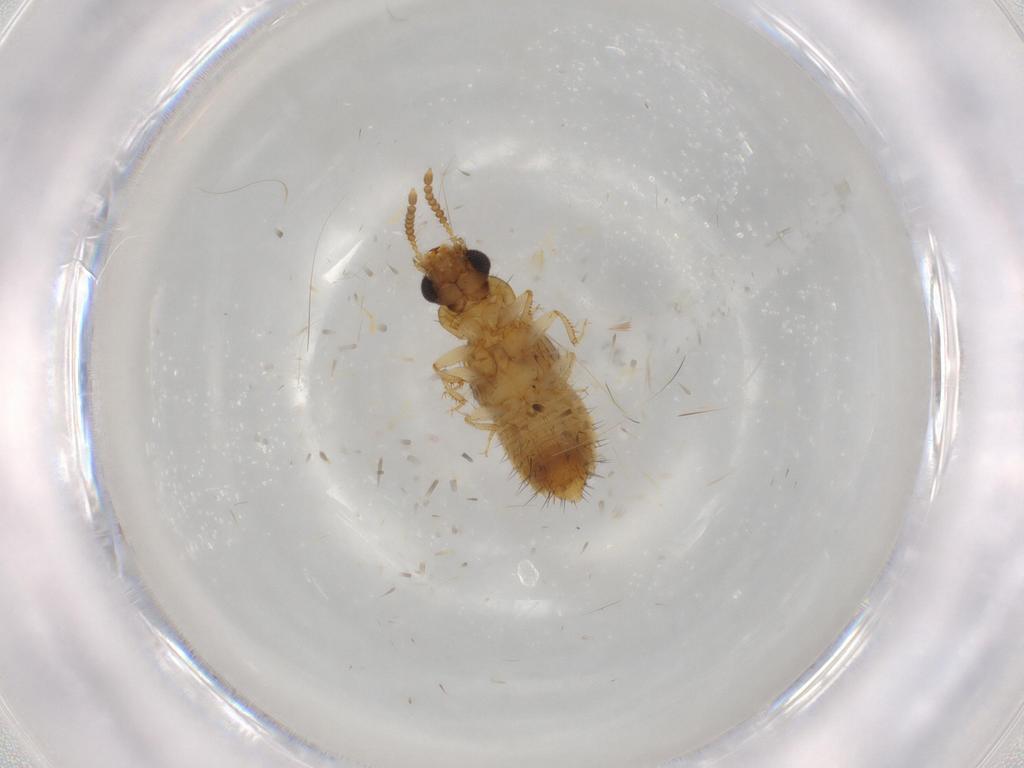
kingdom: Animalia
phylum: Arthropoda
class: Insecta
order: Coleoptera
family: Staphylinidae
